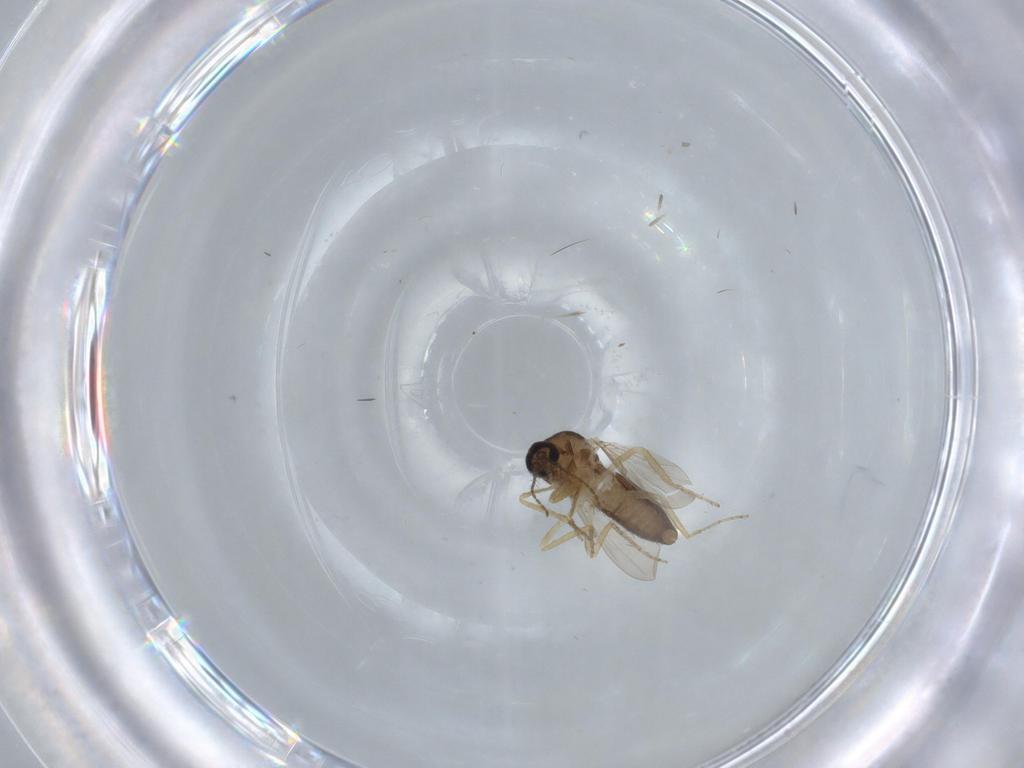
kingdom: Animalia
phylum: Arthropoda
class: Insecta
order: Diptera
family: Ceratopogonidae
